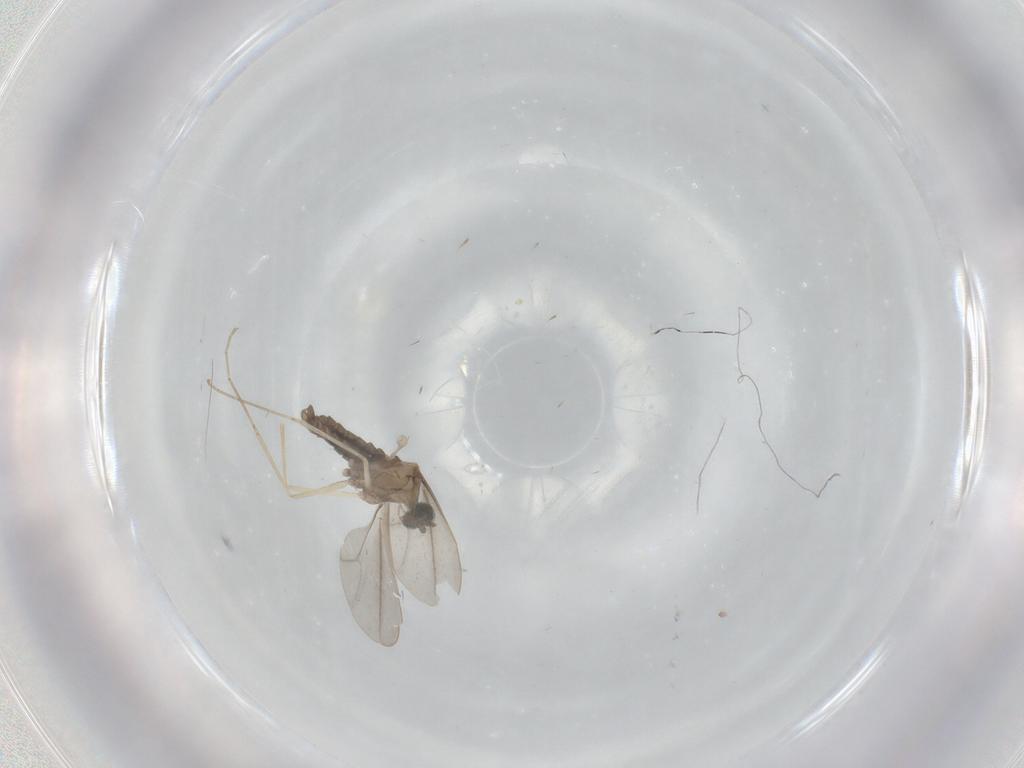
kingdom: Animalia
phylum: Arthropoda
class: Insecta
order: Diptera
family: Cecidomyiidae
